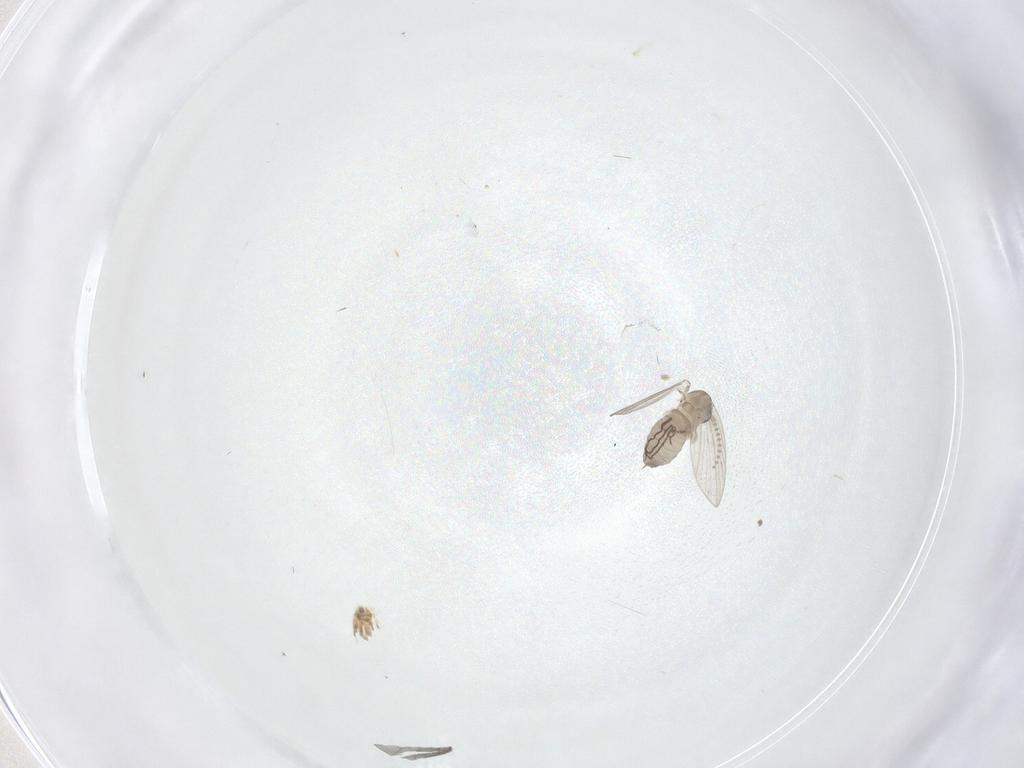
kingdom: Animalia
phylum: Arthropoda
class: Insecta
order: Diptera
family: Psychodidae
